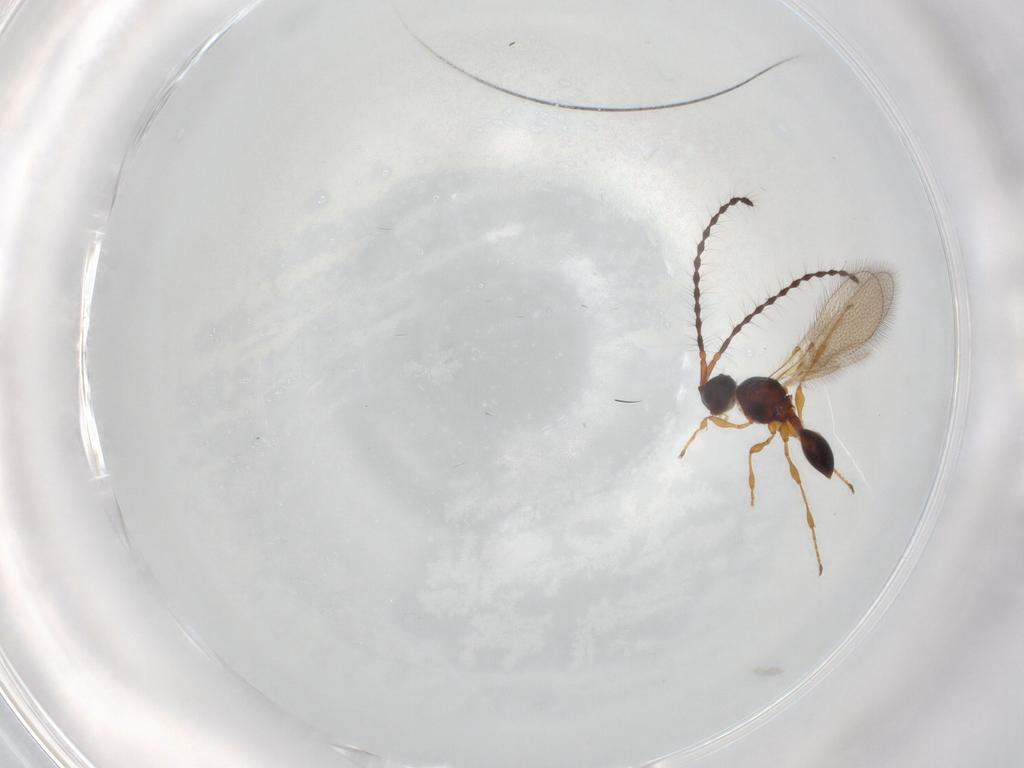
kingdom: Animalia
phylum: Arthropoda
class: Insecta
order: Hymenoptera
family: Diapriidae
